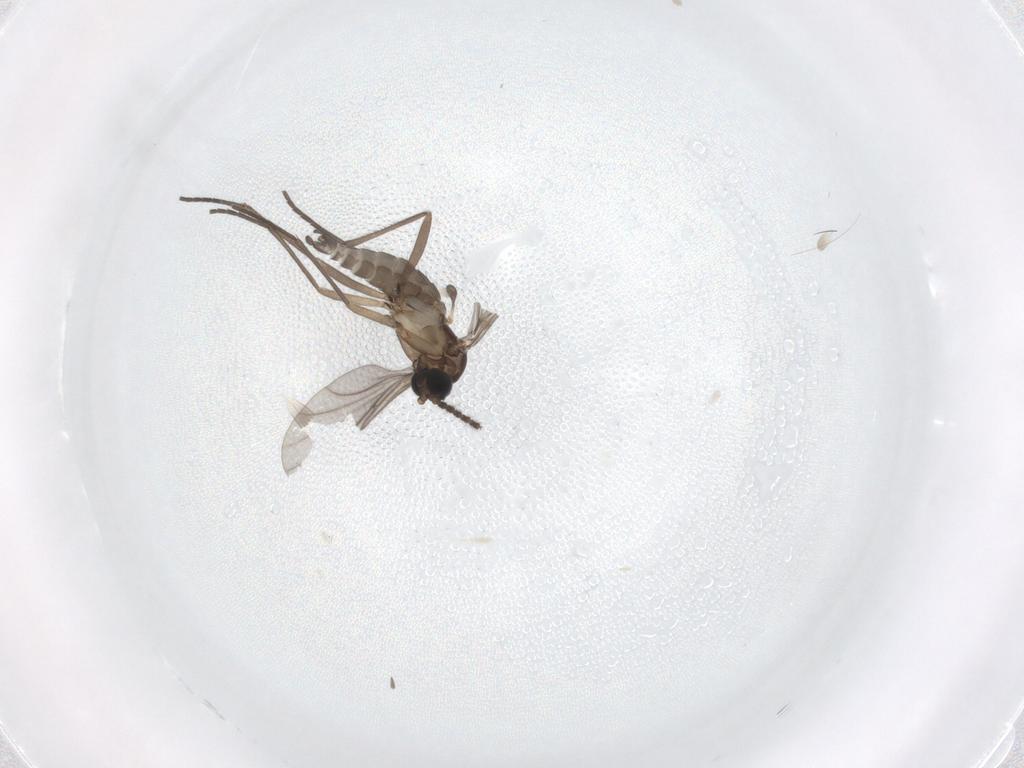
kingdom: Animalia
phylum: Arthropoda
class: Insecta
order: Diptera
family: Sciaridae
